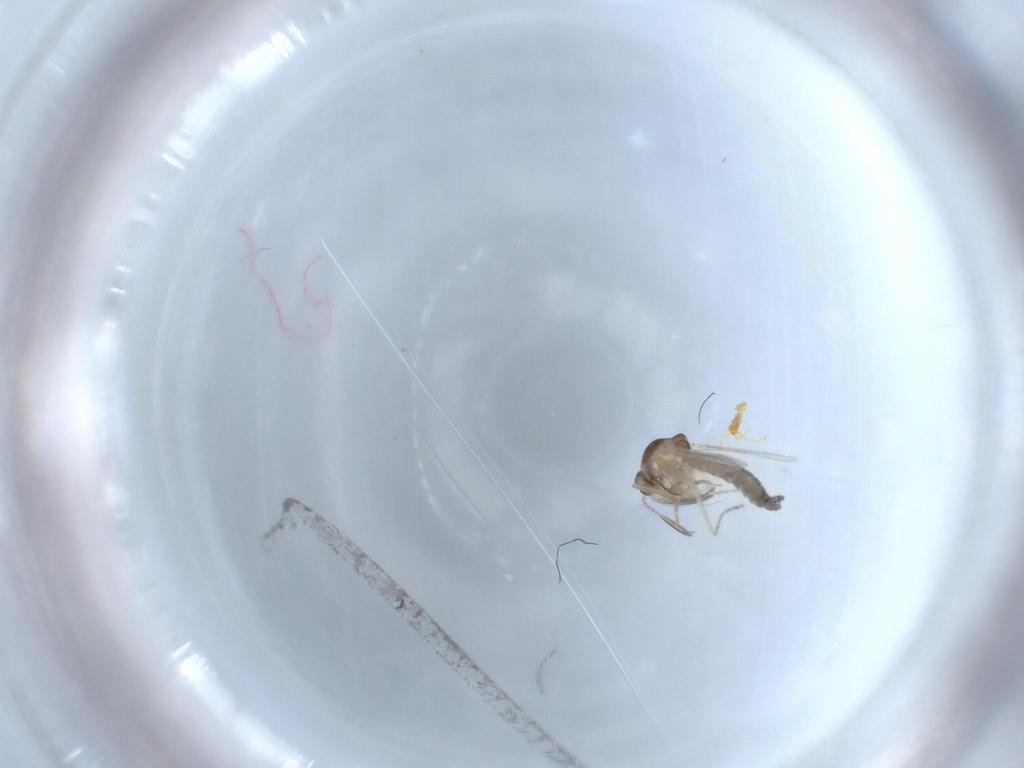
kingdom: Animalia
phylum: Arthropoda
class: Insecta
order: Diptera
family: Ceratopogonidae
